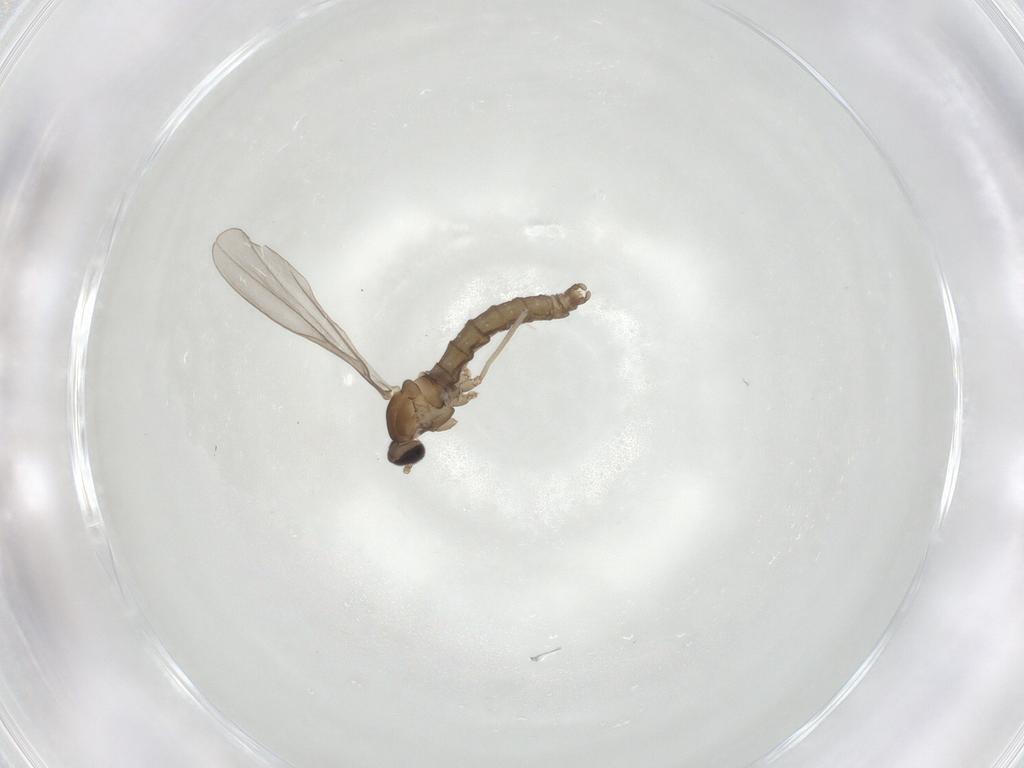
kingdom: Animalia
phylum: Arthropoda
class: Insecta
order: Diptera
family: Cecidomyiidae
